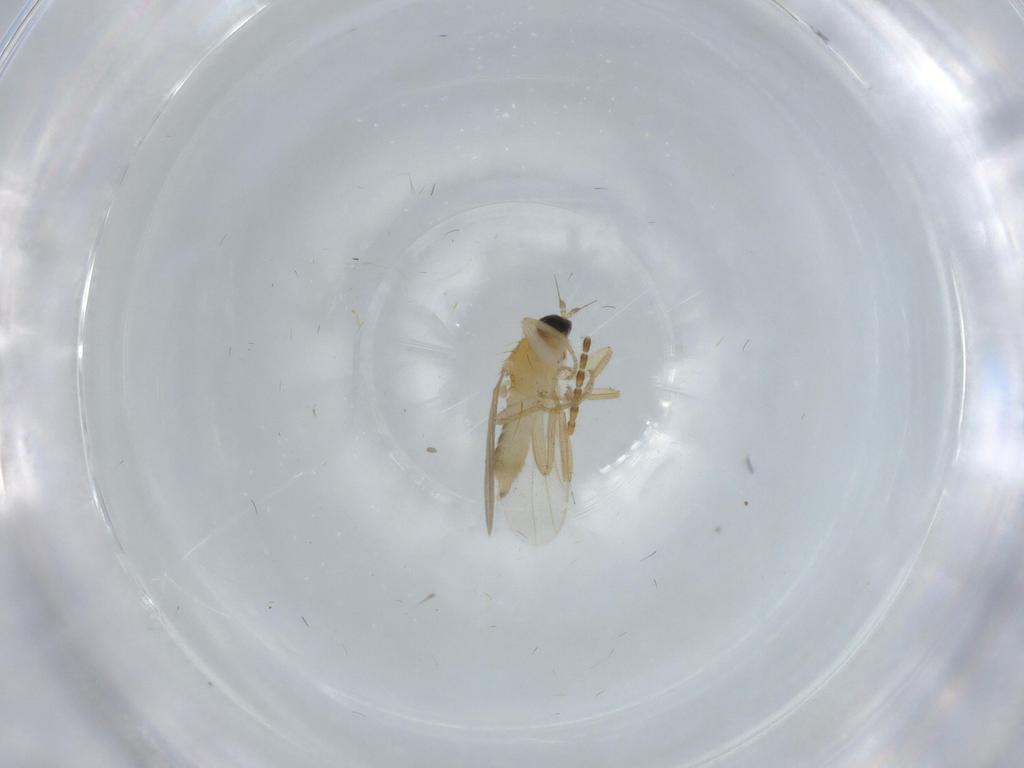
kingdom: Animalia
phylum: Arthropoda
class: Insecta
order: Diptera
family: Hybotidae
